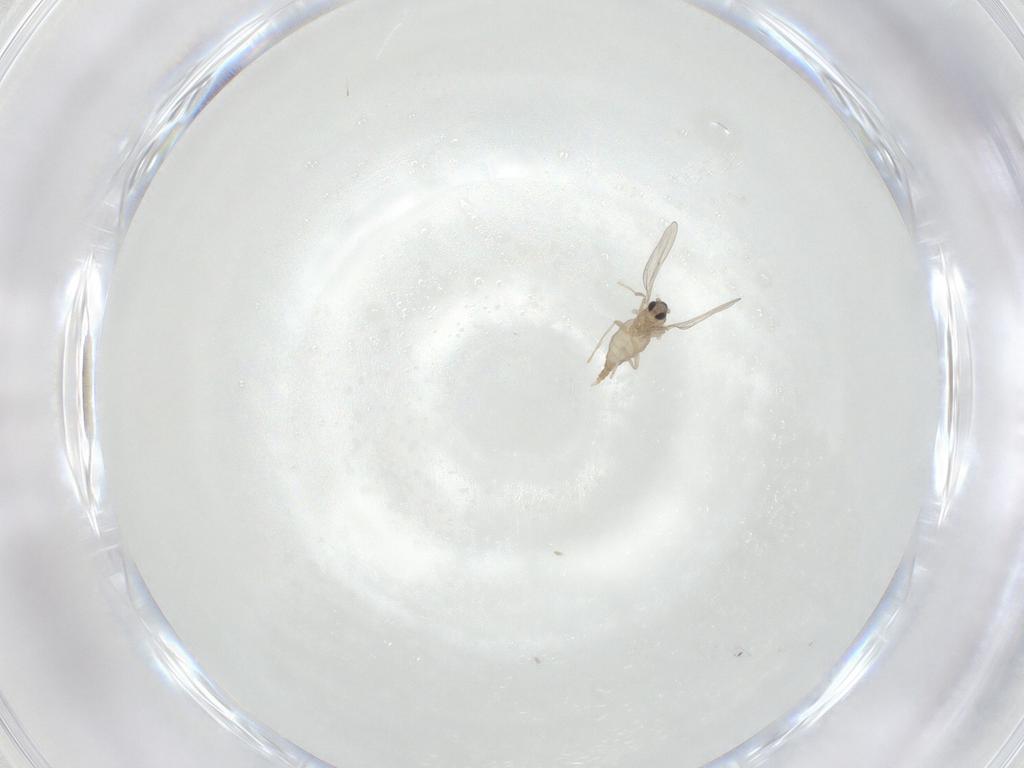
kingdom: Animalia
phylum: Arthropoda
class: Insecta
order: Diptera
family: Cecidomyiidae
